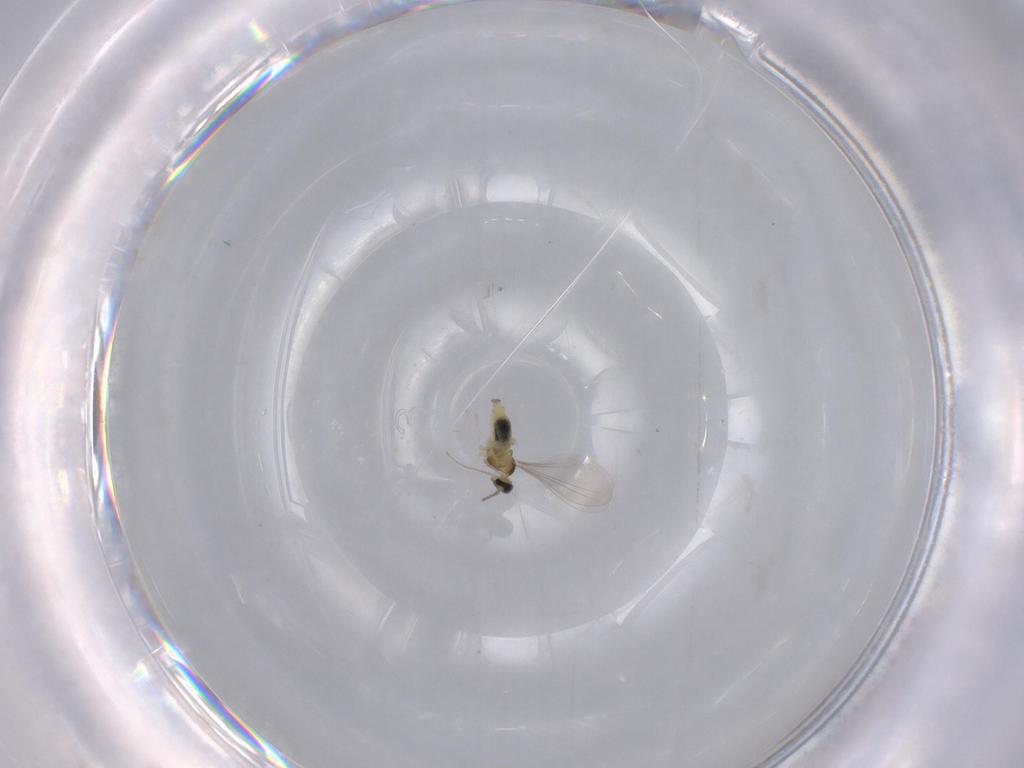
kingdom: Animalia
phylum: Arthropoda
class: Insecta
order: Diptera
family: Cecidomyiidae
